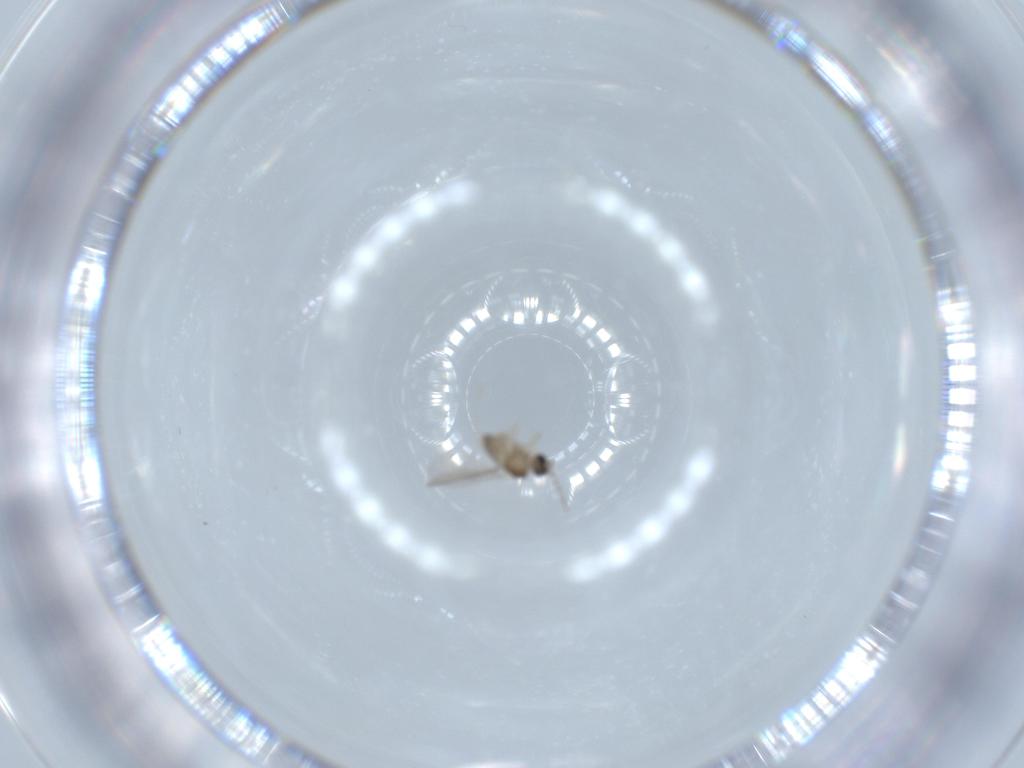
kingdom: Animalia
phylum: Arthropoda
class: Insecta
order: Diptera
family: Cecidomyiidae
